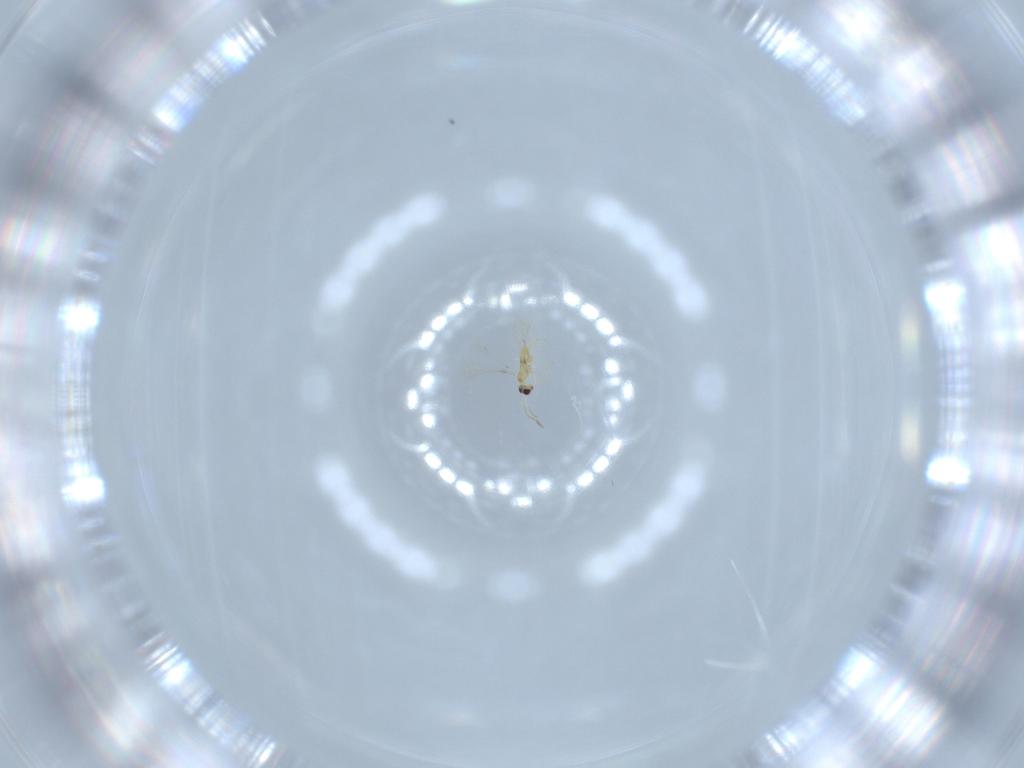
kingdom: Animalia
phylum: Arthropoda
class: Insecta
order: Hymenoptera
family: Mymaridae
